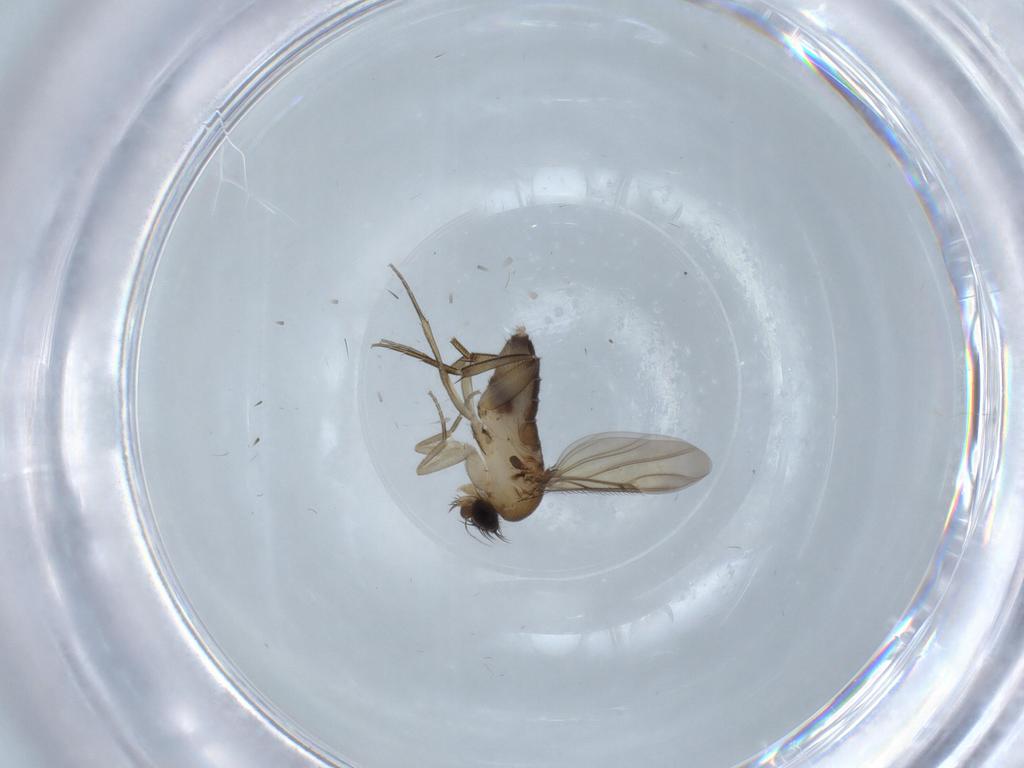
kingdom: Animalia
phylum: Arthropoda
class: Insecta
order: Diptera
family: Phoridae
